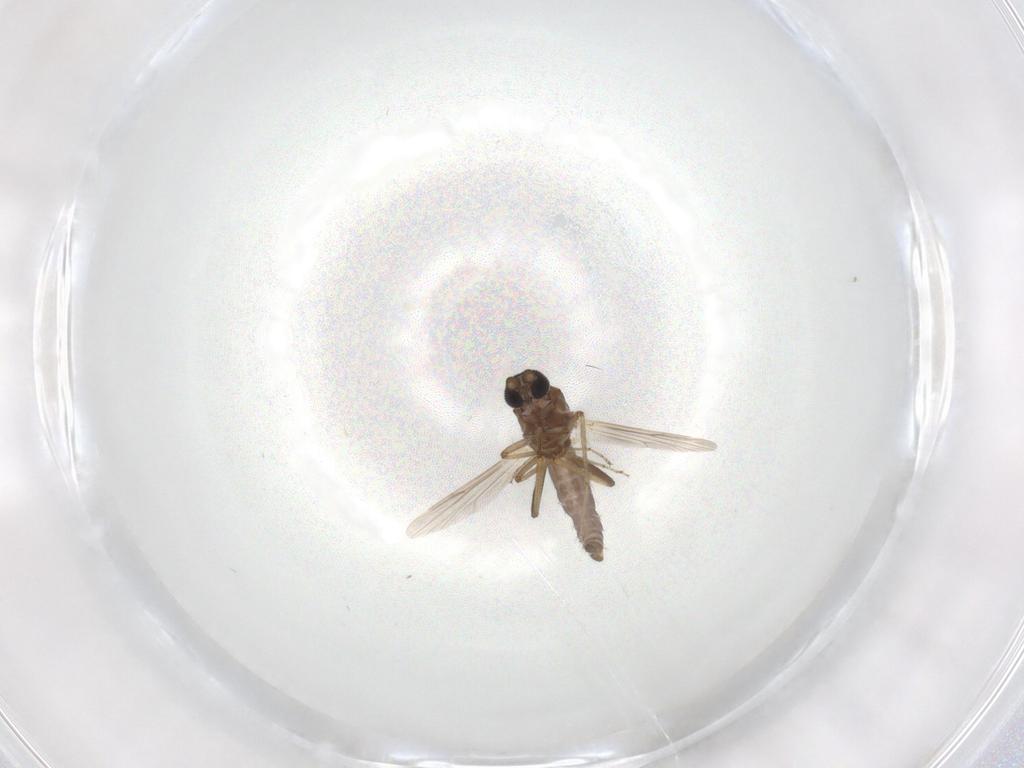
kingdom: Animalia
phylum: Arthropoda
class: Insecta
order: Diptera
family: Ceratopogonidae
